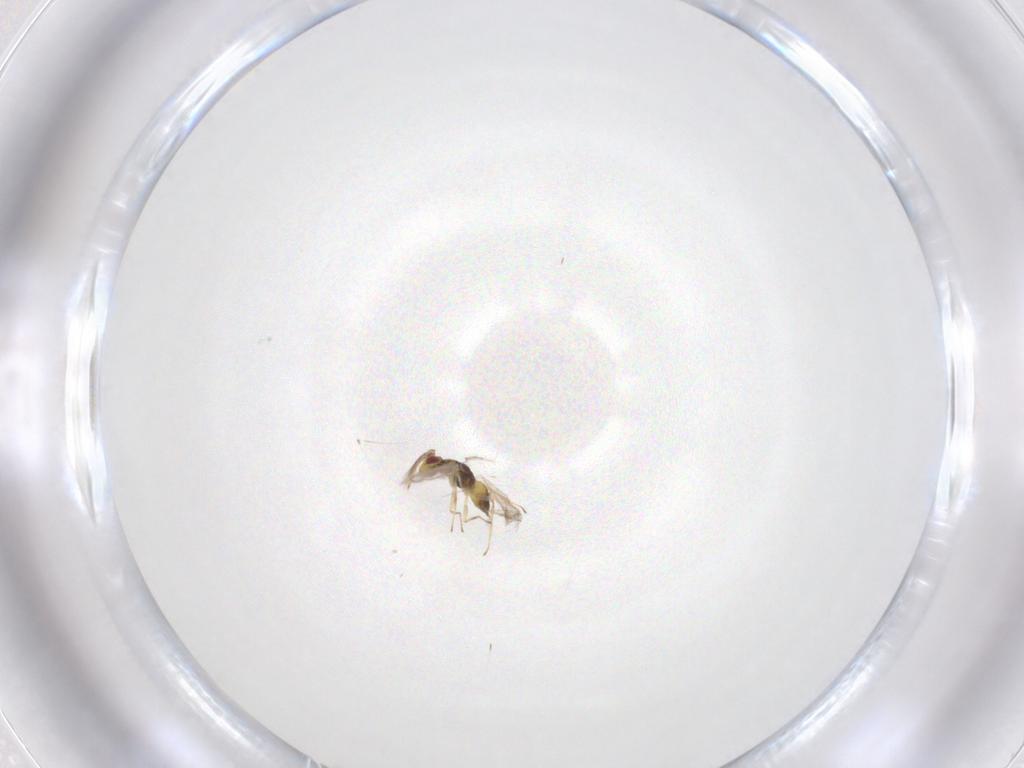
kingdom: Animalia
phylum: Arthropoda
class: Insecta
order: Hymenoptera
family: Eulophidae
